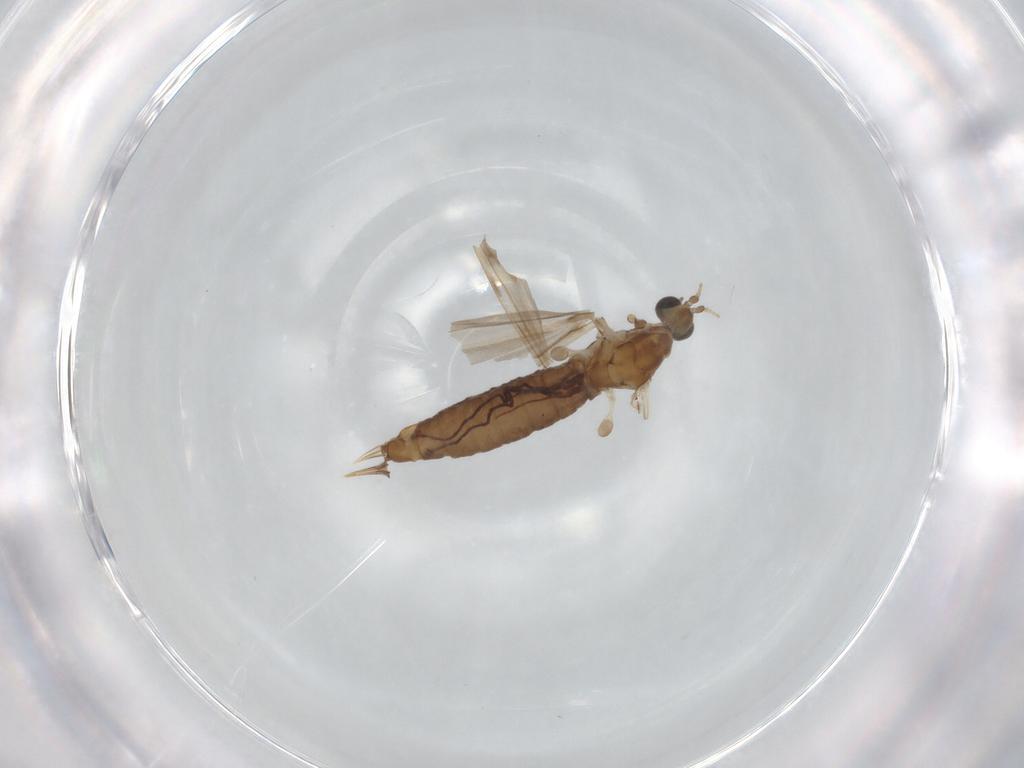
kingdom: Animalia
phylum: Arthropoda
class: Insecta
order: Diptera
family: Limoniidae
